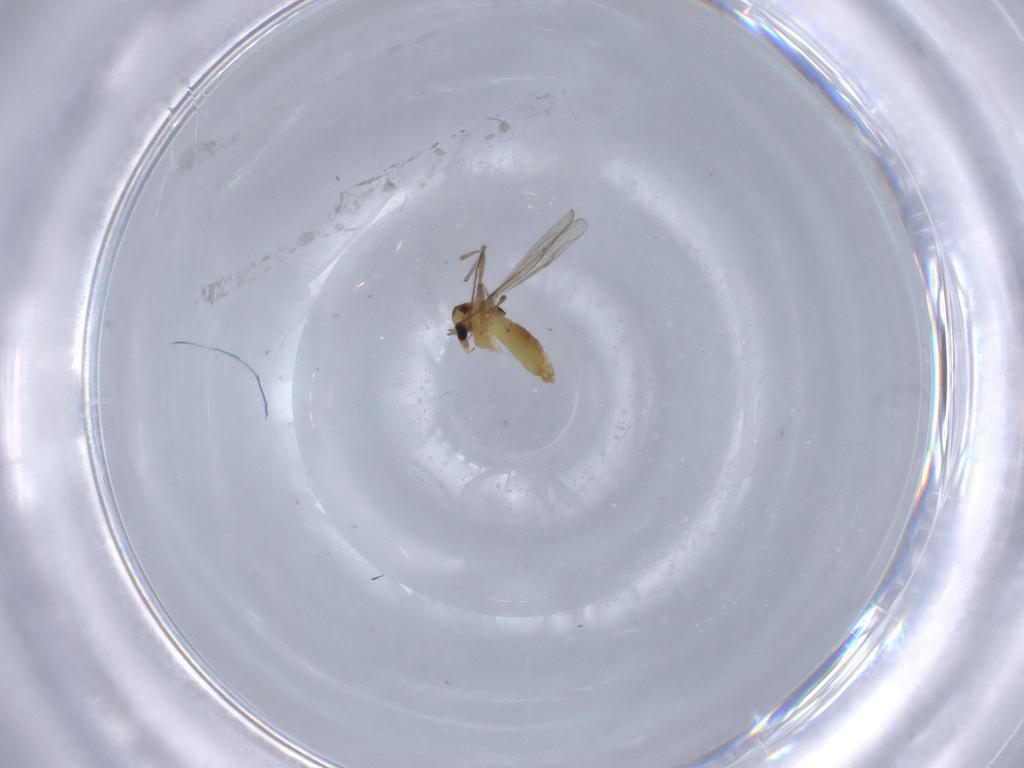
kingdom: Animalia
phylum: Arthropoda
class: Insecta
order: Diptera
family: Chironomidae
